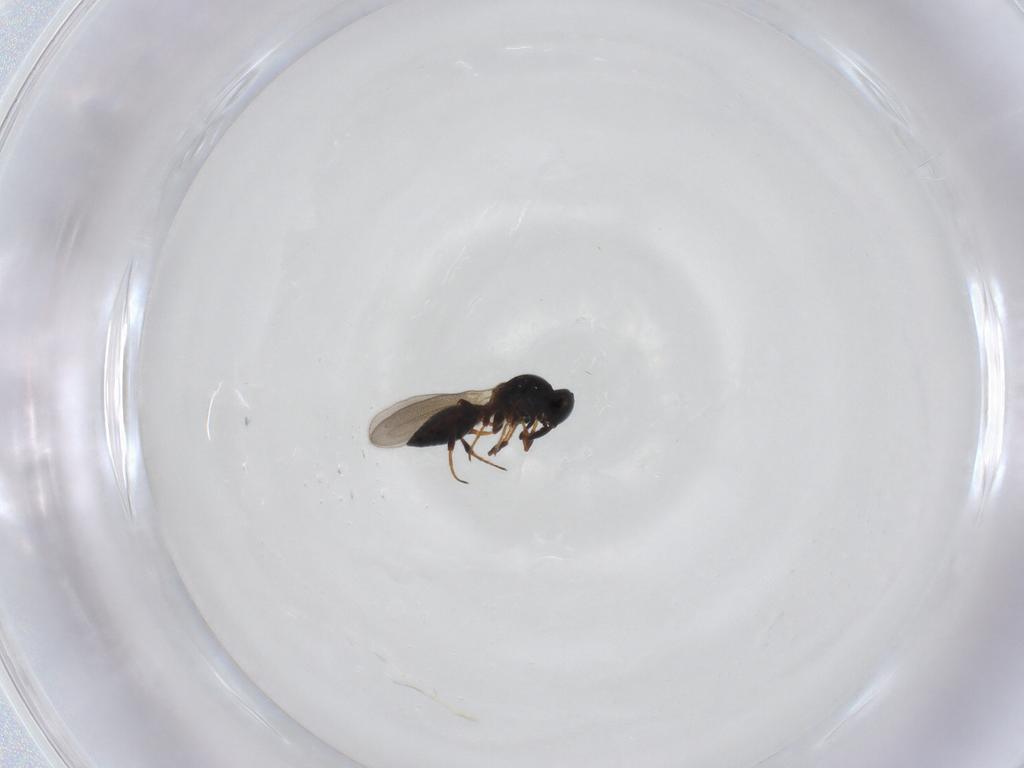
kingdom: Animalia
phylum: Arthropoda
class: Insecta
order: Hymenoptera
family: Platygastridae
